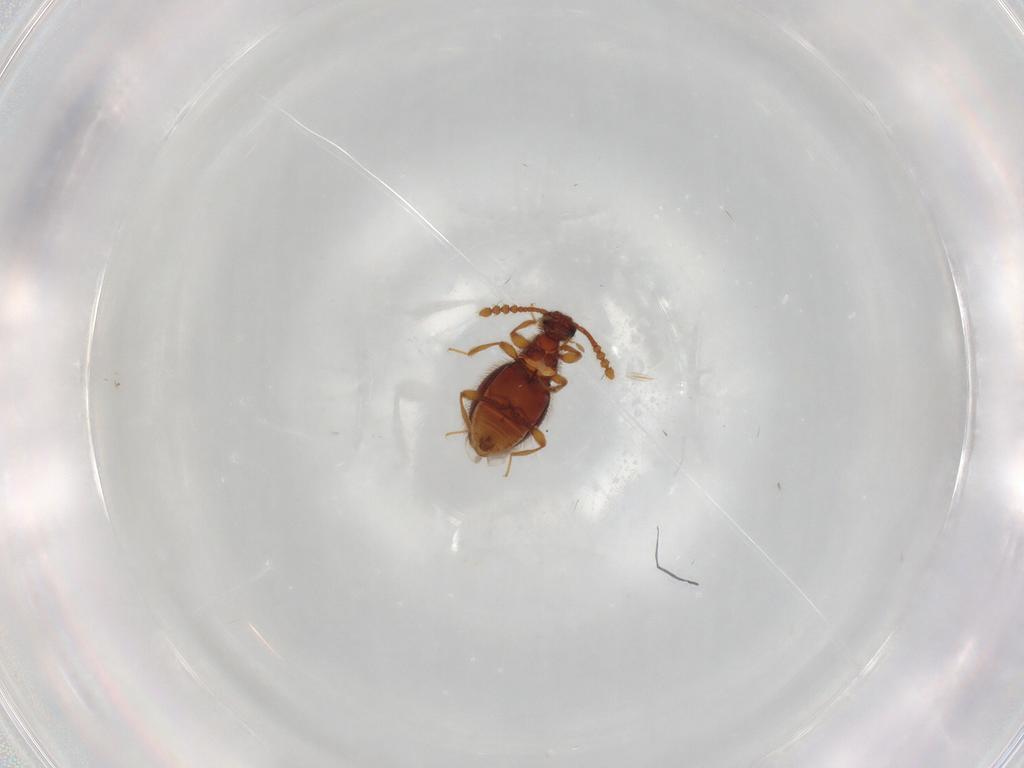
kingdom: Animalia
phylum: Arthropoda
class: Insecta
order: Coleoptera
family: Staphylinidae
